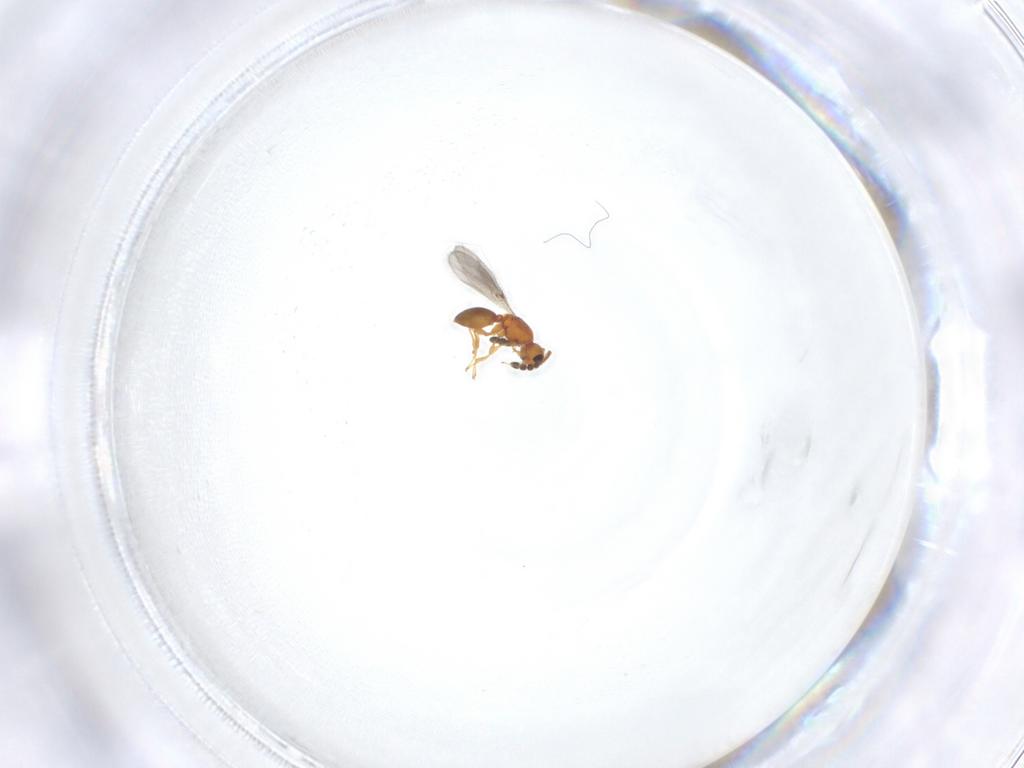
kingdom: Animalia
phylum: Arthropoda
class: Insecta
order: Hymenoptera
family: Diapriidae
